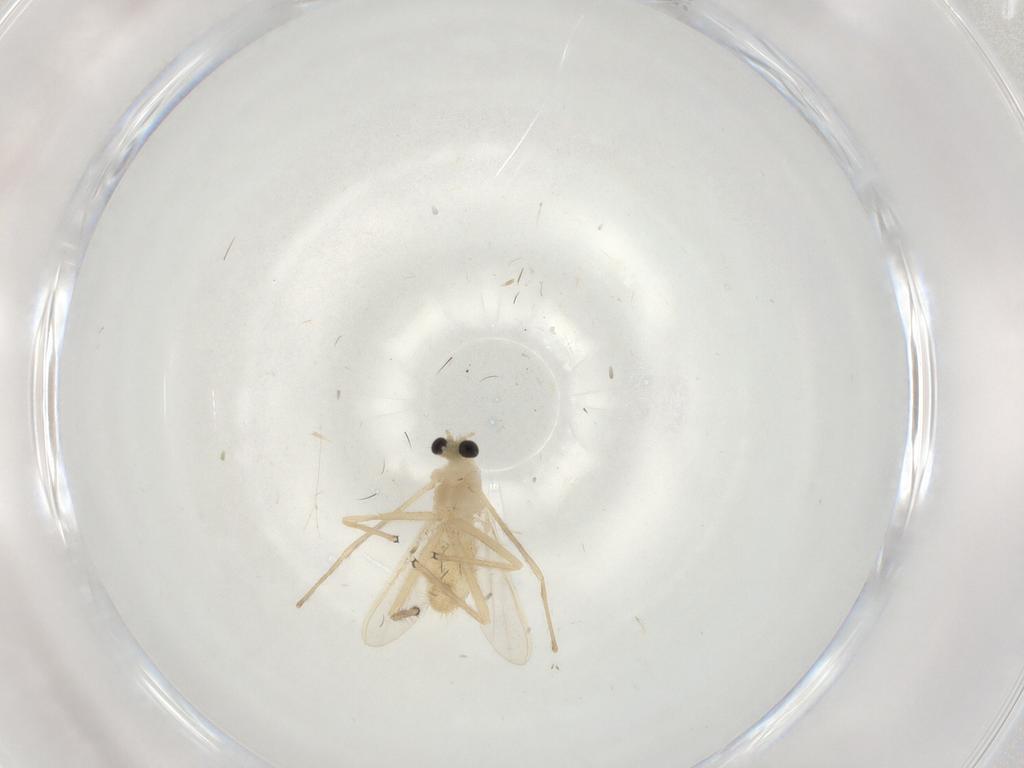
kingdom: Animalia
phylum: Arthropoda
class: Insecta
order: Diptera
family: Chironomidae
